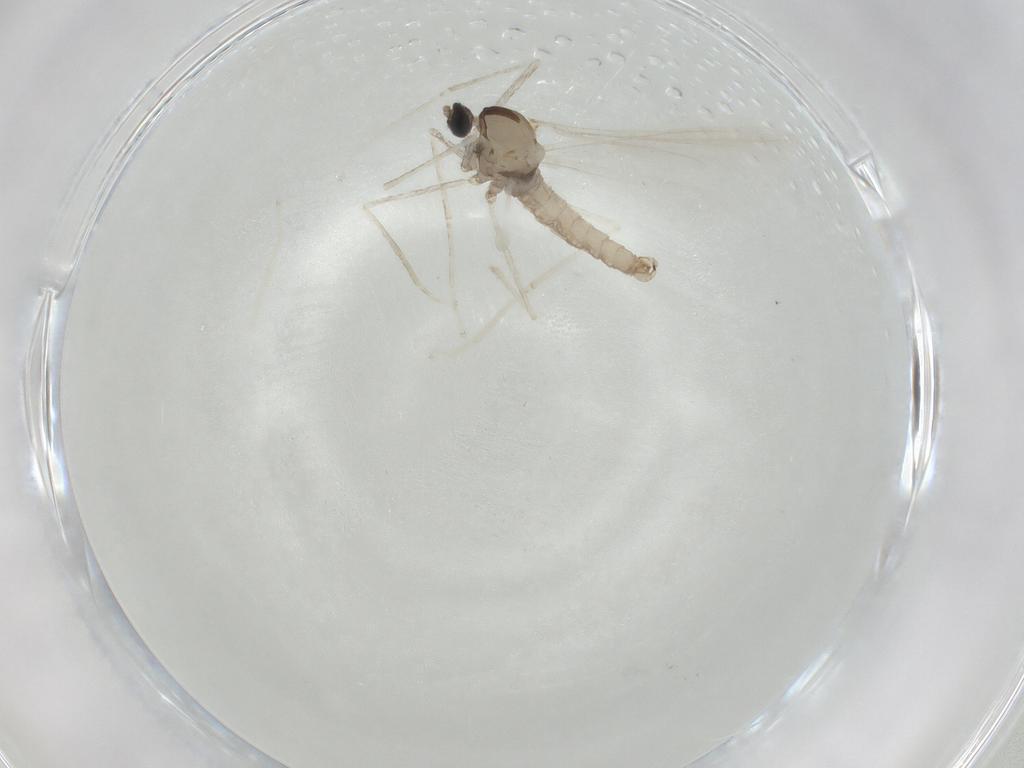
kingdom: Animalia
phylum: Arthropoda
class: Insecta
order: Diptera
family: Cecidomyiidae
